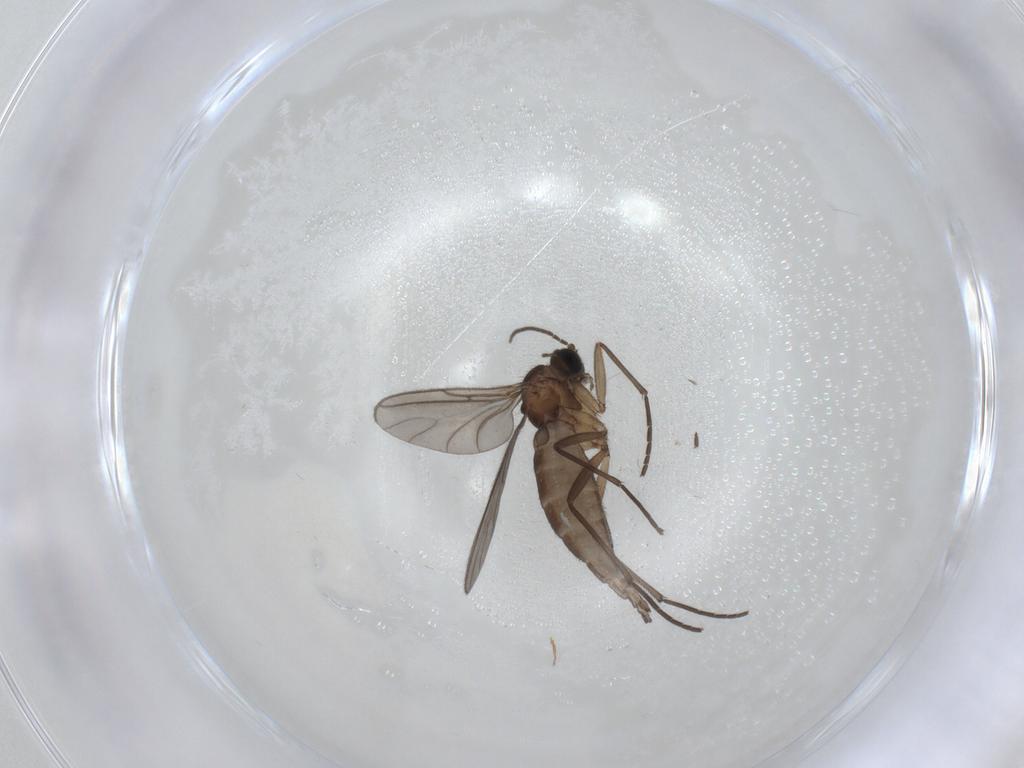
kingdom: Animalia
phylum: Arthropoda
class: Insecta
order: Diptera
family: Sciaridae
